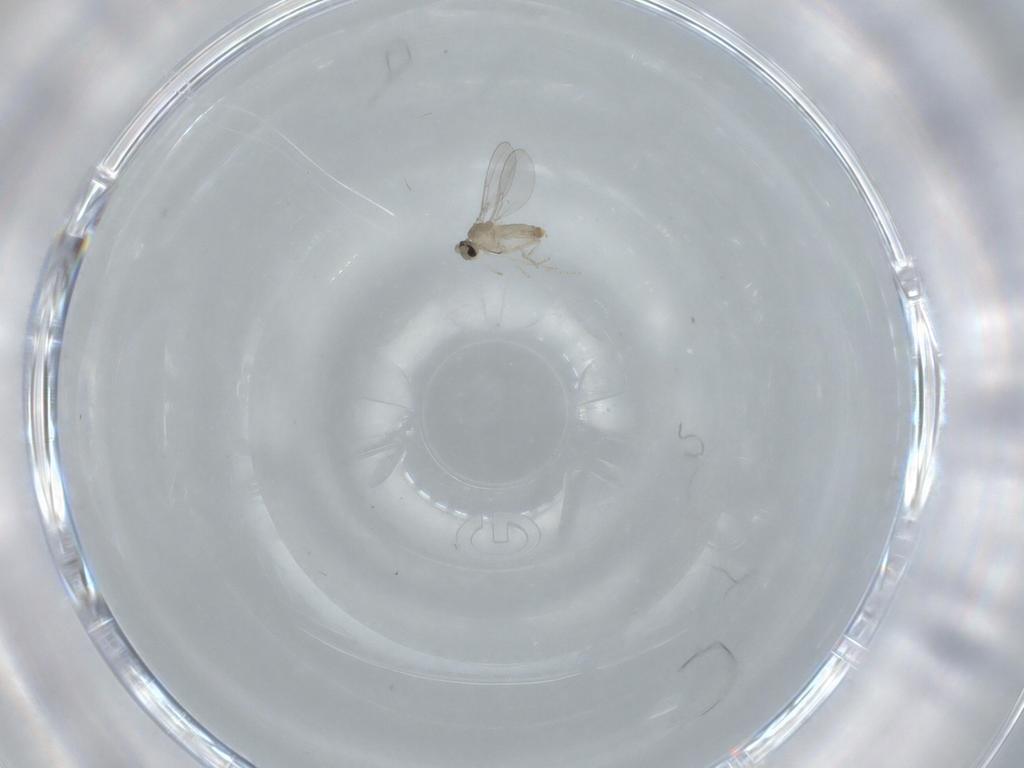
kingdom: Animalia
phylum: Arthropoda
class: Insecta
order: Diptera
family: Cecidomyiidae
